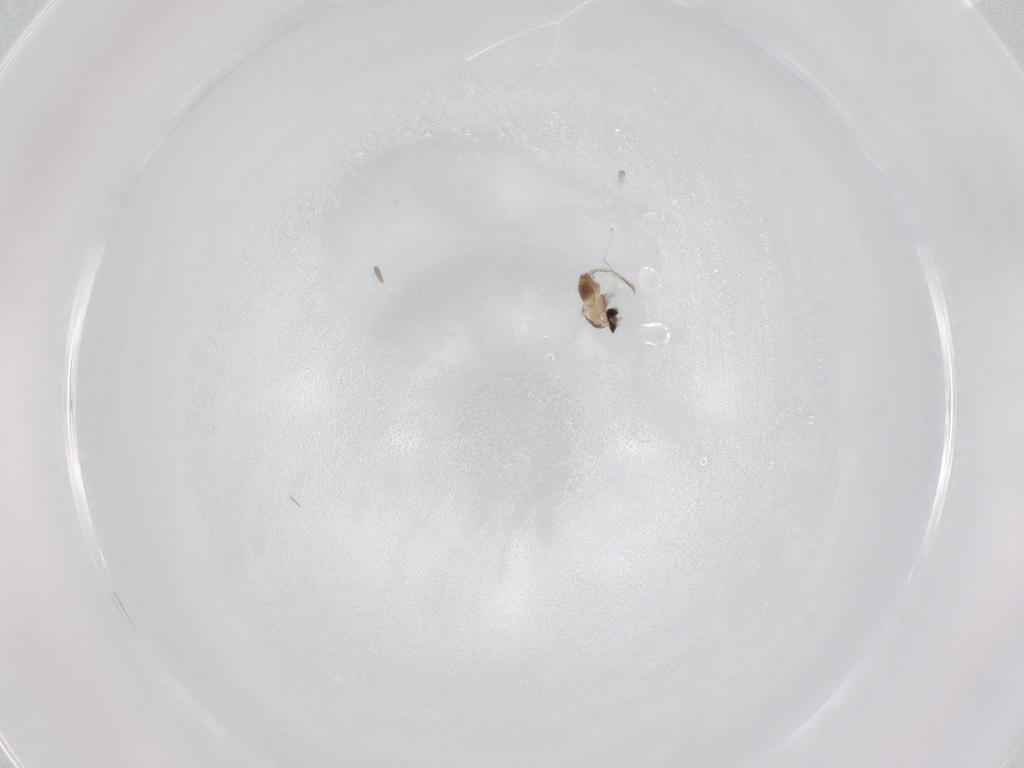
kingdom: Animalia
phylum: Arthropoda
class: Insecta
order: Diptera
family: Cecidomyiidae
